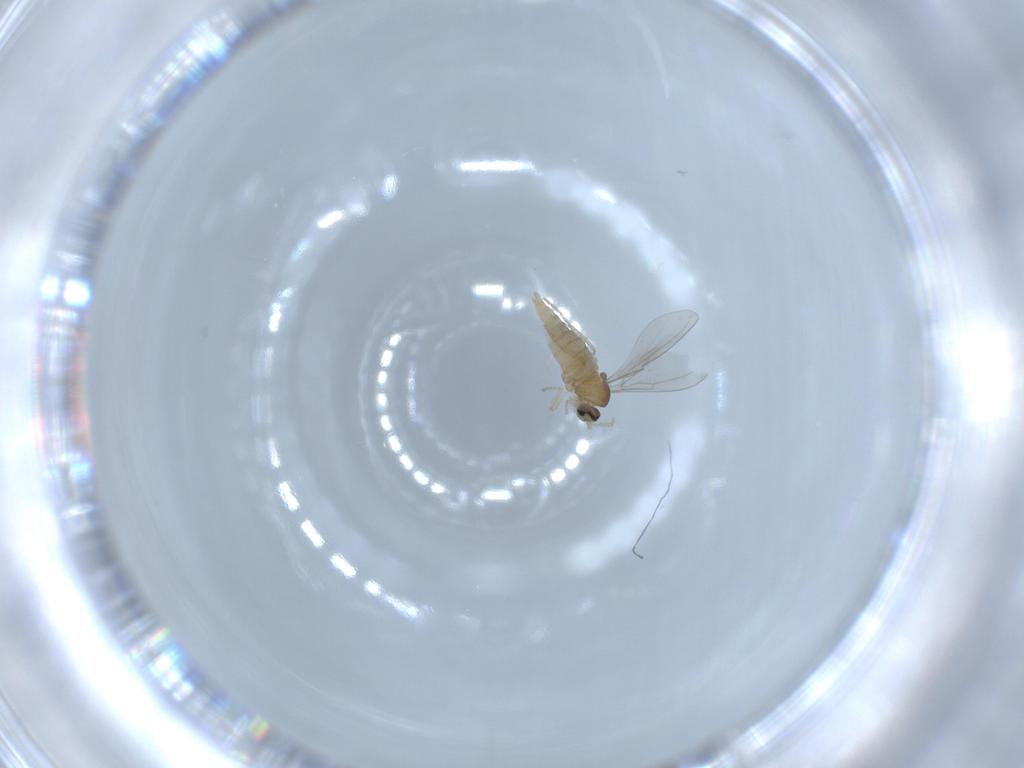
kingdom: Animalia
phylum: Arthropoda
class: Insecta
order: Diptera
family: Cecidomyiidae
